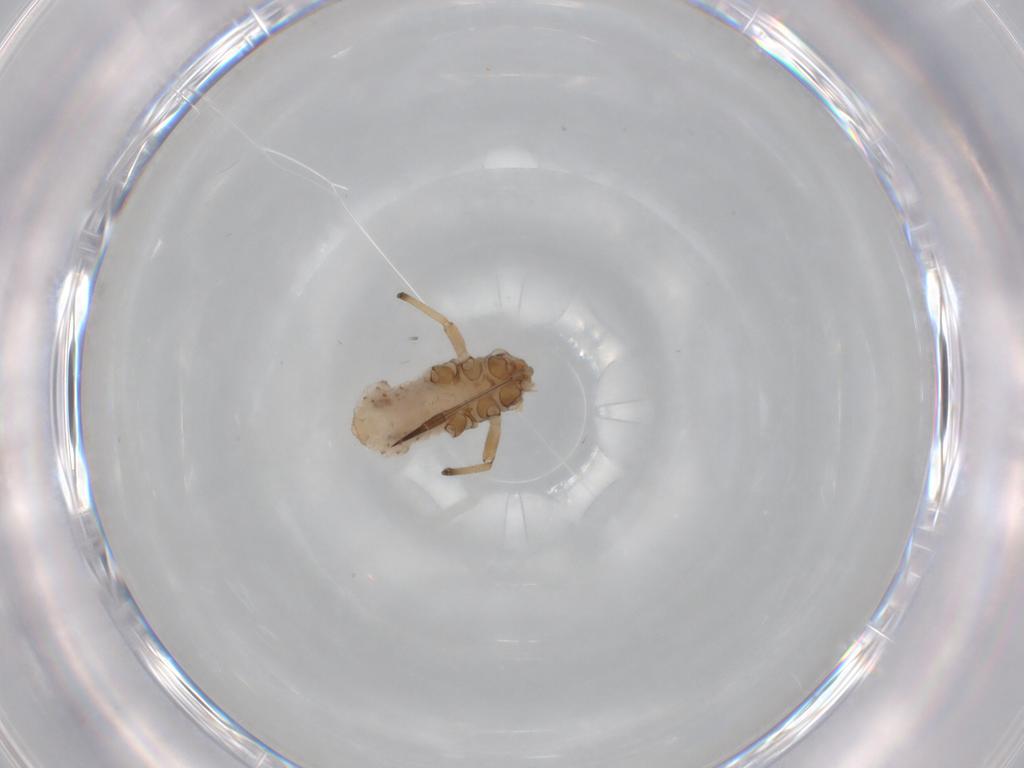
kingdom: Animalia
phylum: Arthropoda
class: Insecta
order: Hemiptera
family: Aphididae
